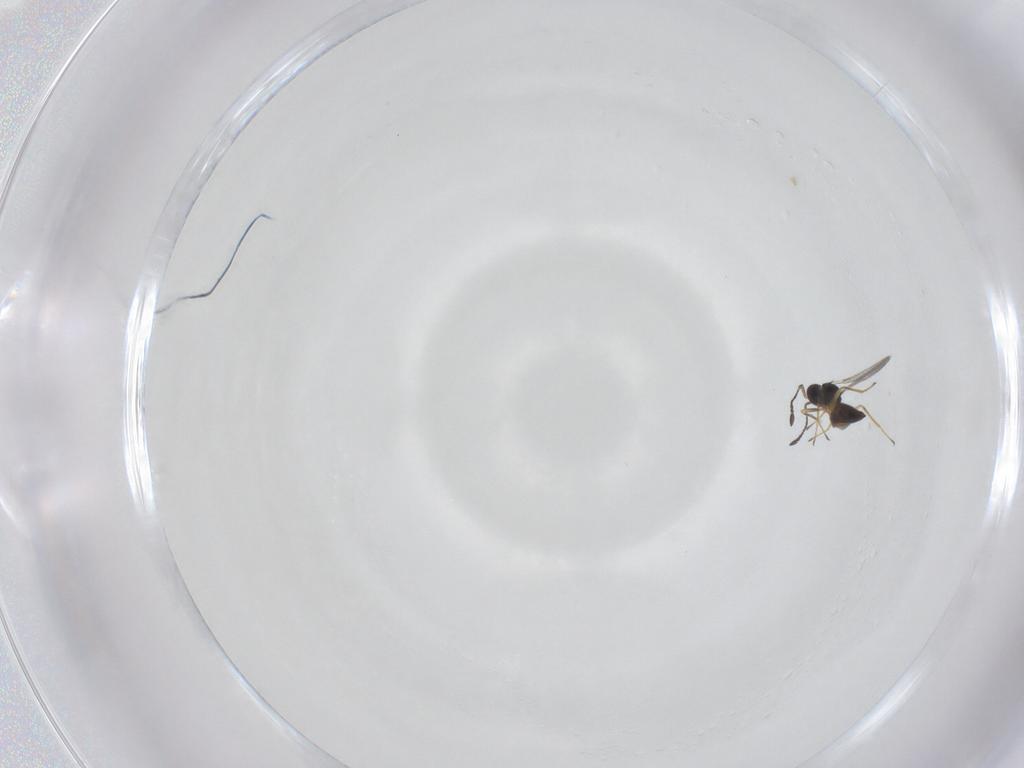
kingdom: Animalia
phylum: Arthropoda
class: Insecta
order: Hymenoptera
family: Mymaridae
